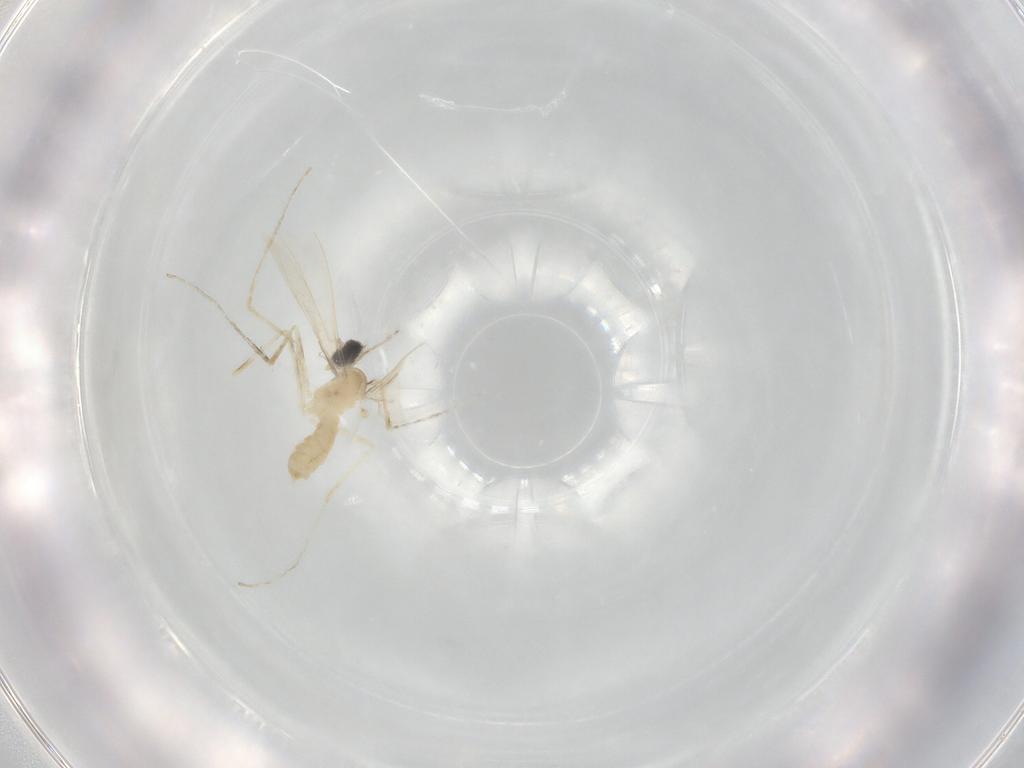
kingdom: Animalia
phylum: Arthropoda
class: Insecta
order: Diptera
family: Cecidomyiidae
